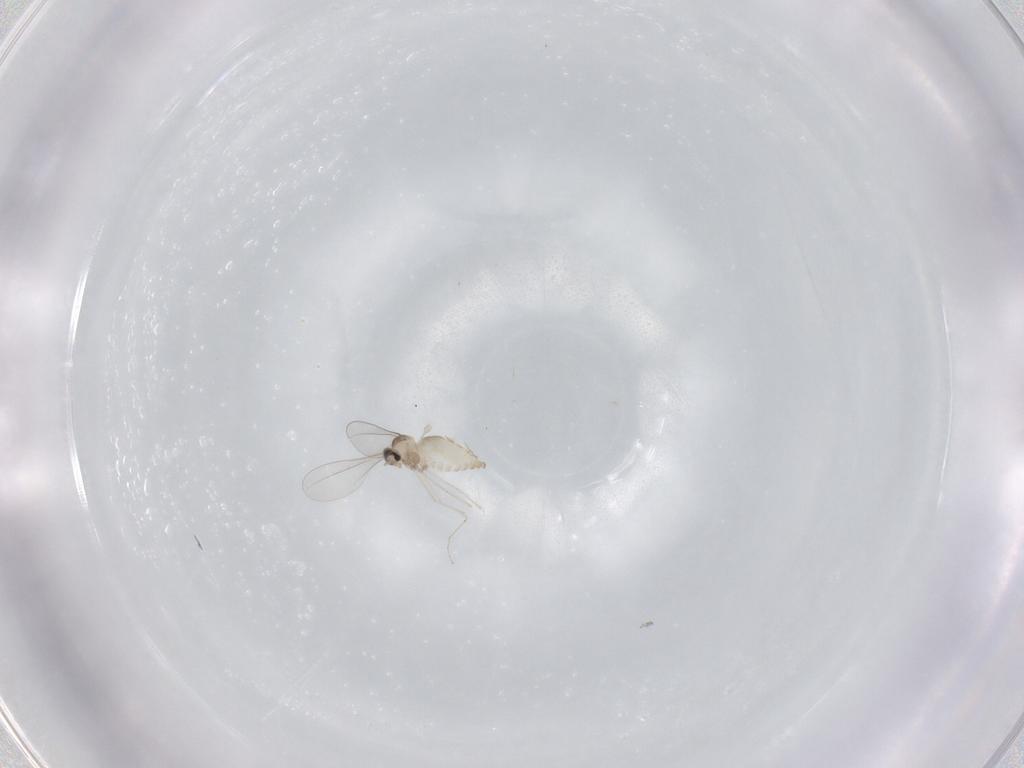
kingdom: Animalia
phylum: Arthropoda
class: Insecta
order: Diptera
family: Cecidomyiidae
